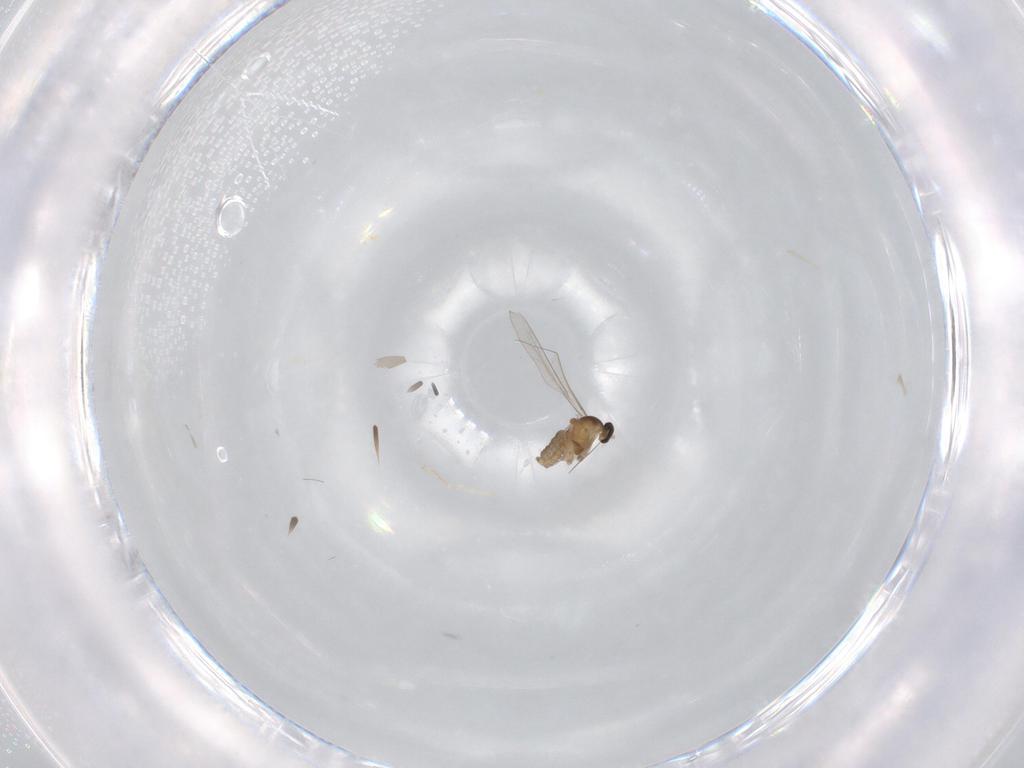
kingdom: Animalia
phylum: Arthropoda
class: Insecta
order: Diptera
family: Cecidomyiidae
